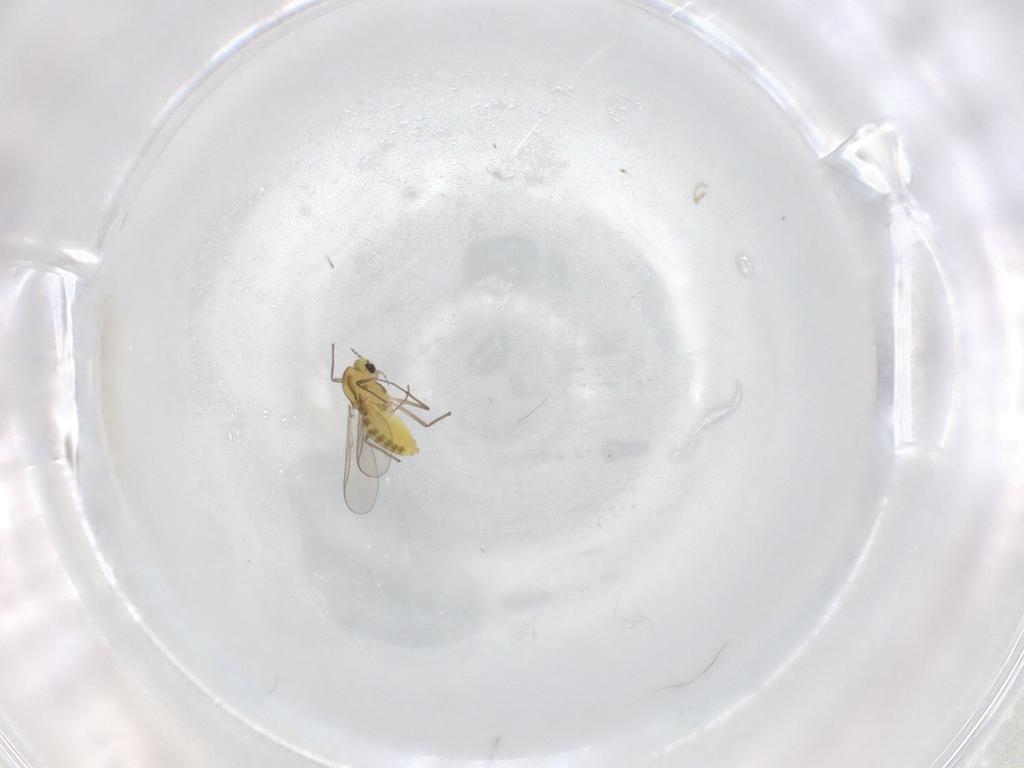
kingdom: Animalia
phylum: Arthropoda
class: Insecta
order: Diptera
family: Chironomidae
